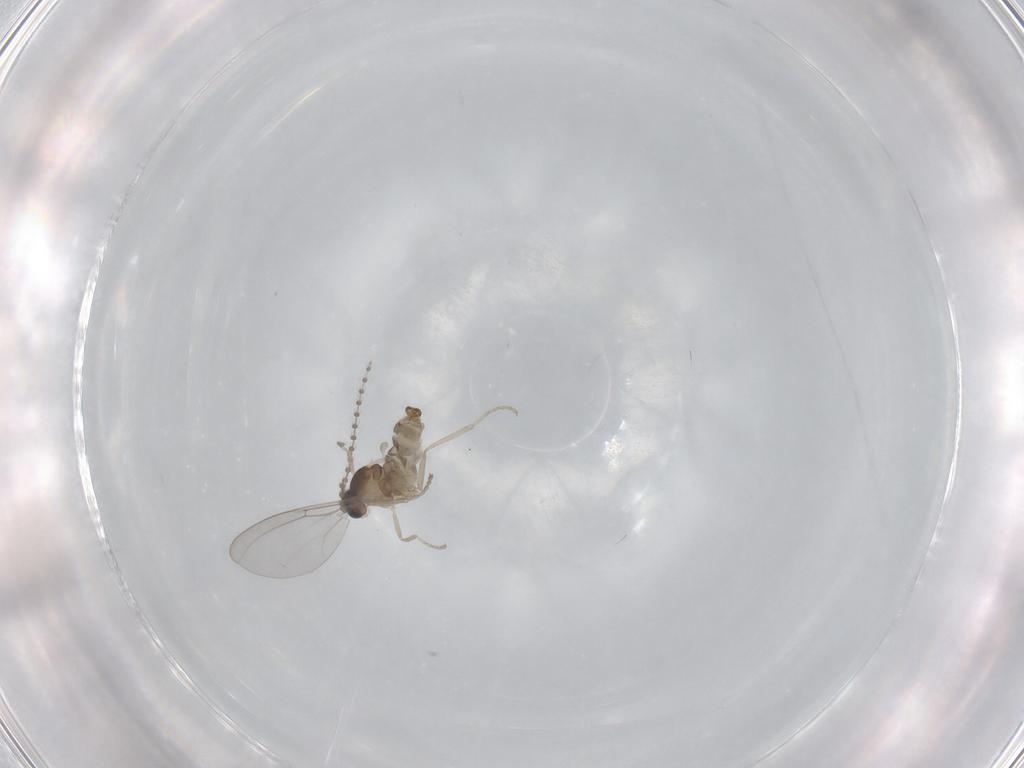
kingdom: Animalia
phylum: Arthropoda
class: Insecta
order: Diptera
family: Cecidomyiidae
